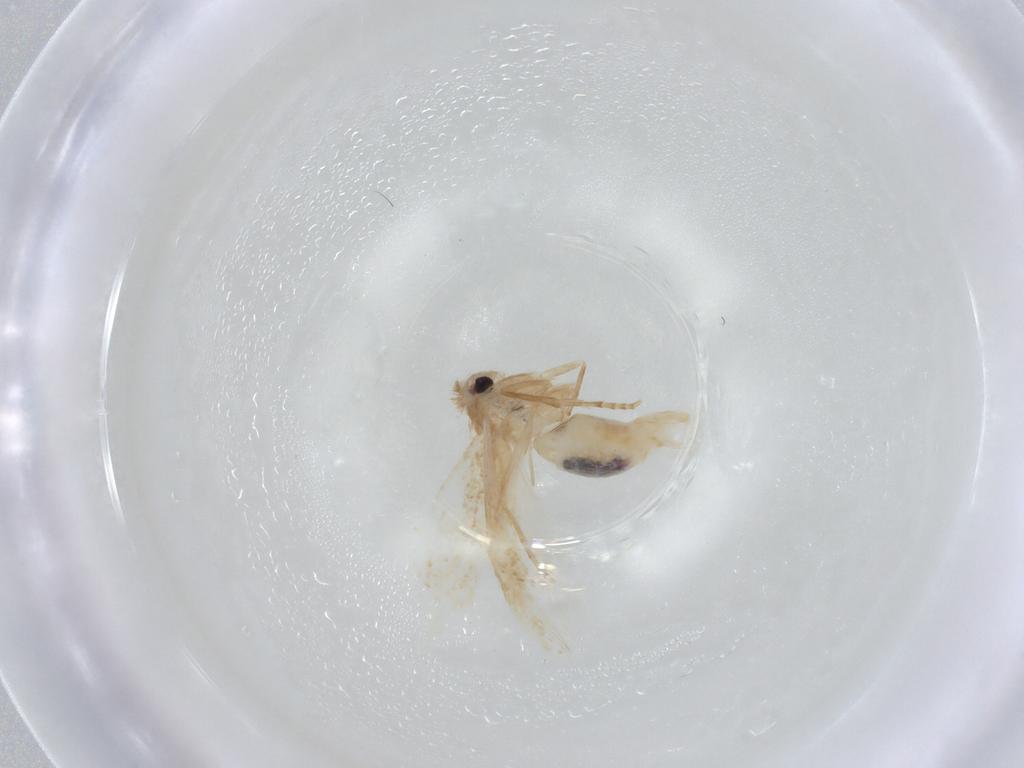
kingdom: Animalia
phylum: Arthropoda
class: Insecta
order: Lepidoptera
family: Bucculatricidae
